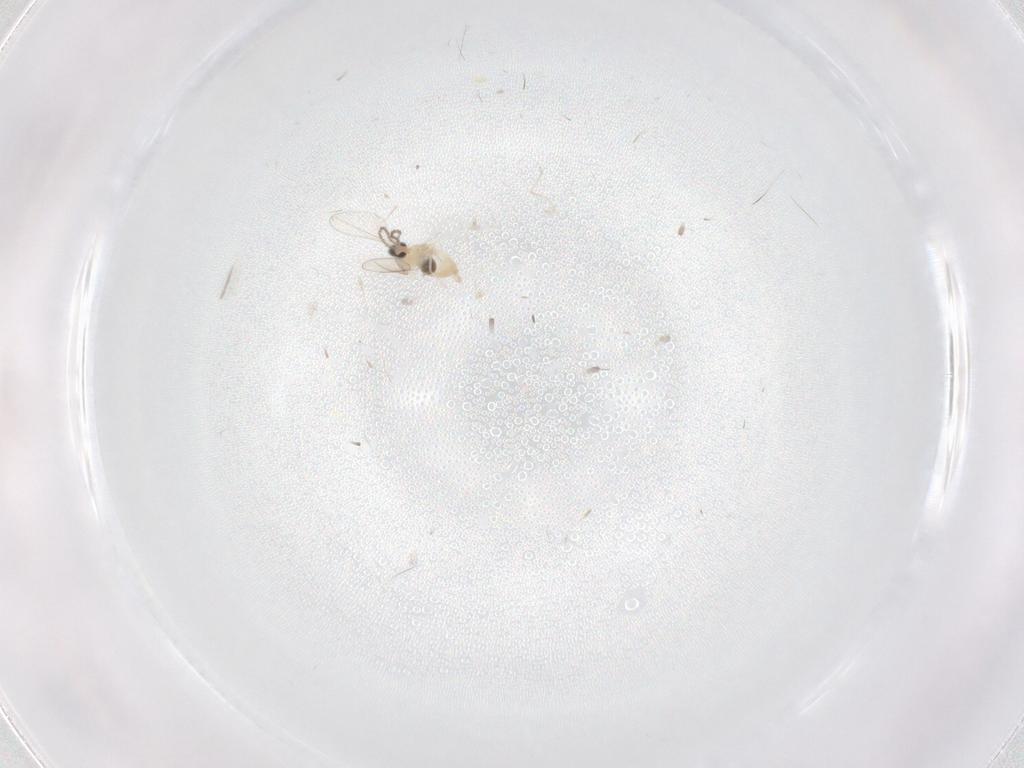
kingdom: Animalia
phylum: Arthropoda
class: Insecta
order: Diptera
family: Cecidomyiidae
